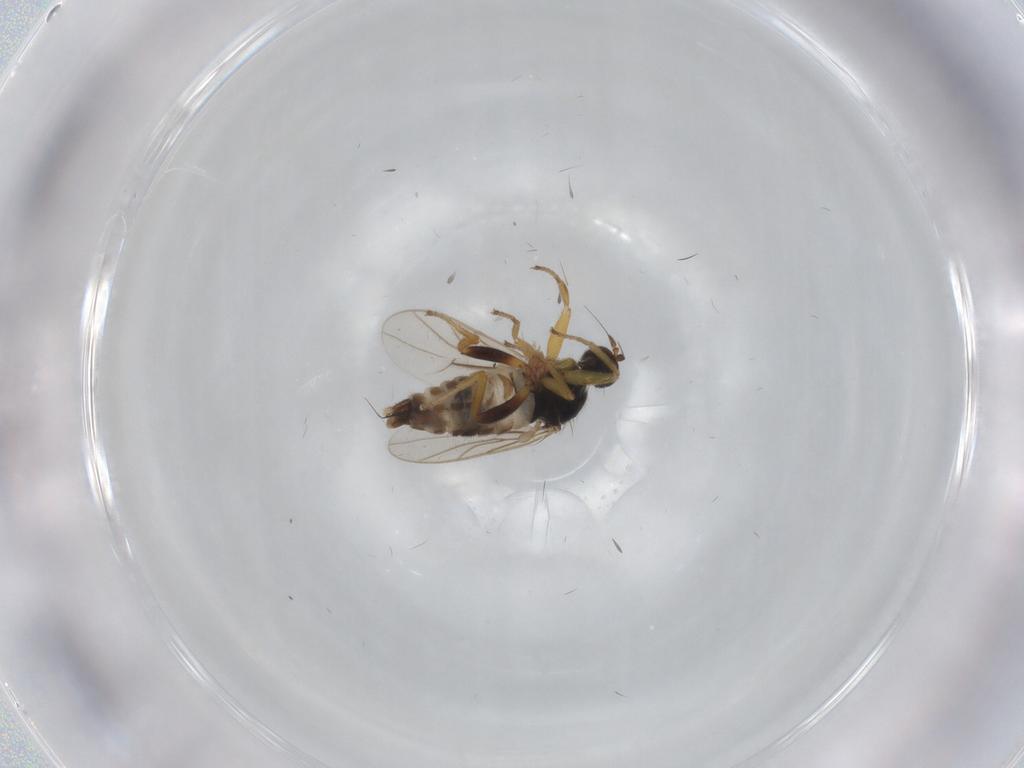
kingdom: Animalia
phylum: Arthropoda
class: Insecta
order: Diptera
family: Hybotidae
